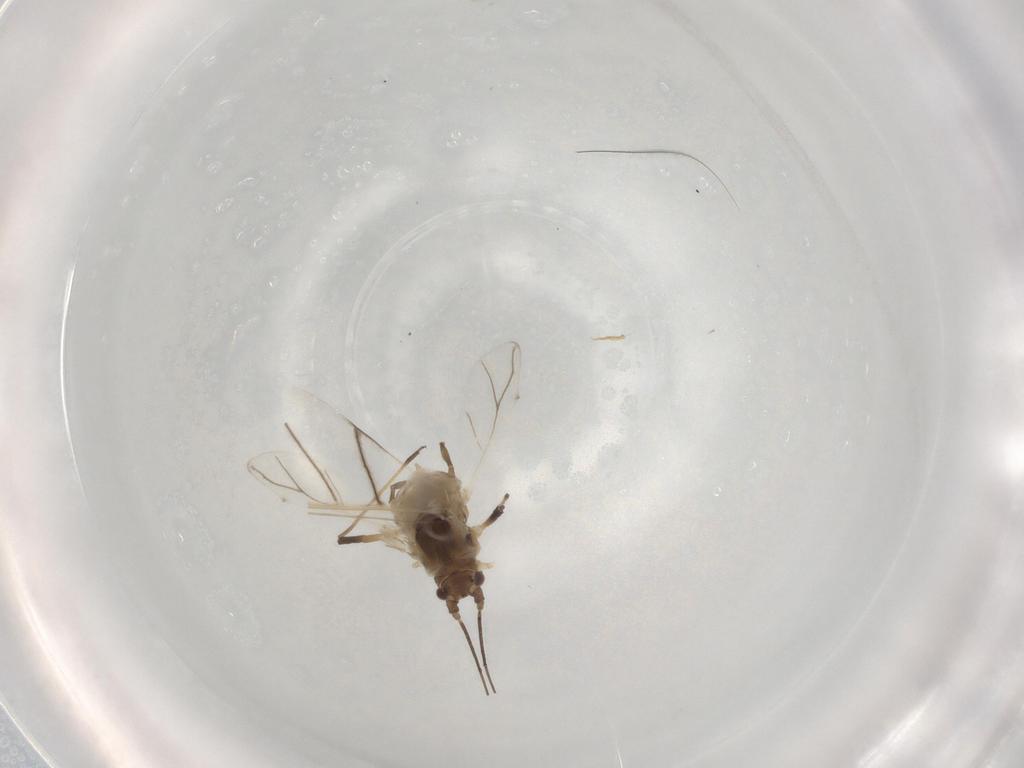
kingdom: Animalia
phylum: Arthropoda
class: Insecta
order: Hemiptera
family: Aphididae
